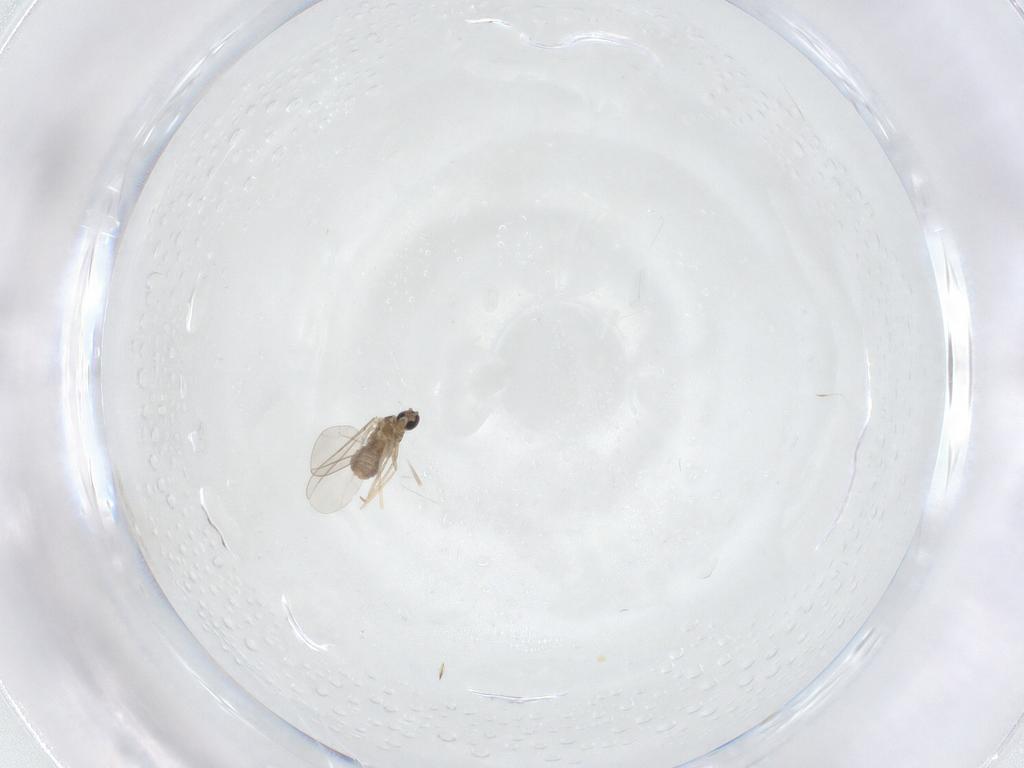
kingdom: Animalia
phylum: Arthropoda
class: Insecta
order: Diptera
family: Cecidomyiidae
